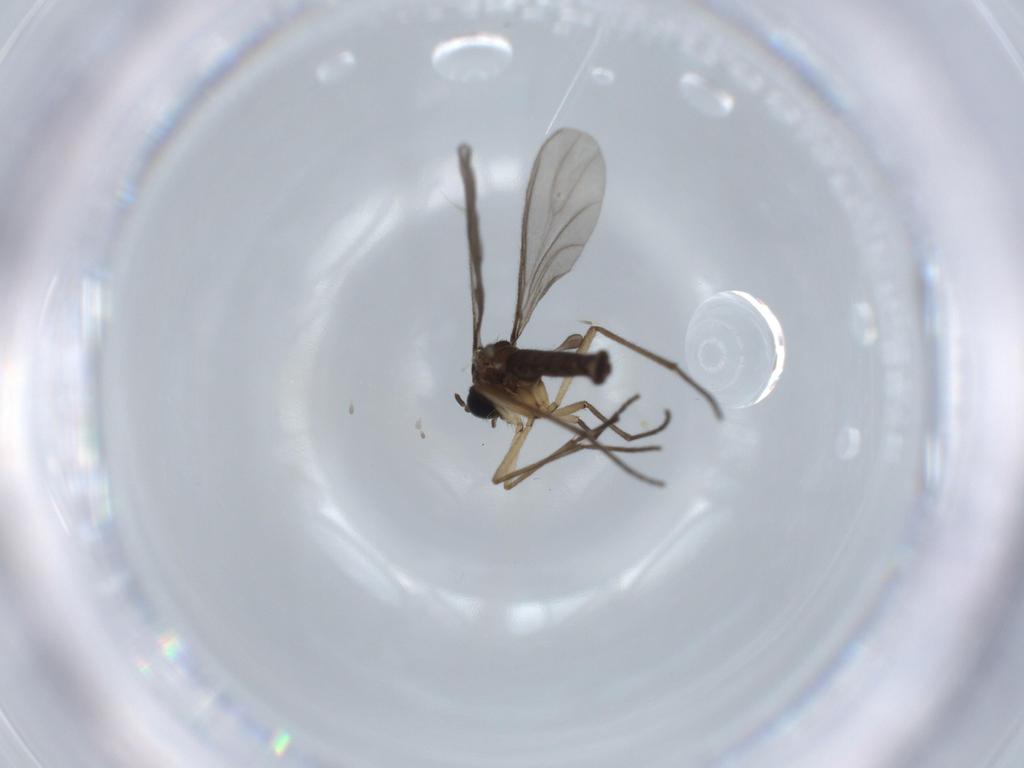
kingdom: Animalia
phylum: Arthropoda
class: Insecta
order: Diptera
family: Sciaridae
